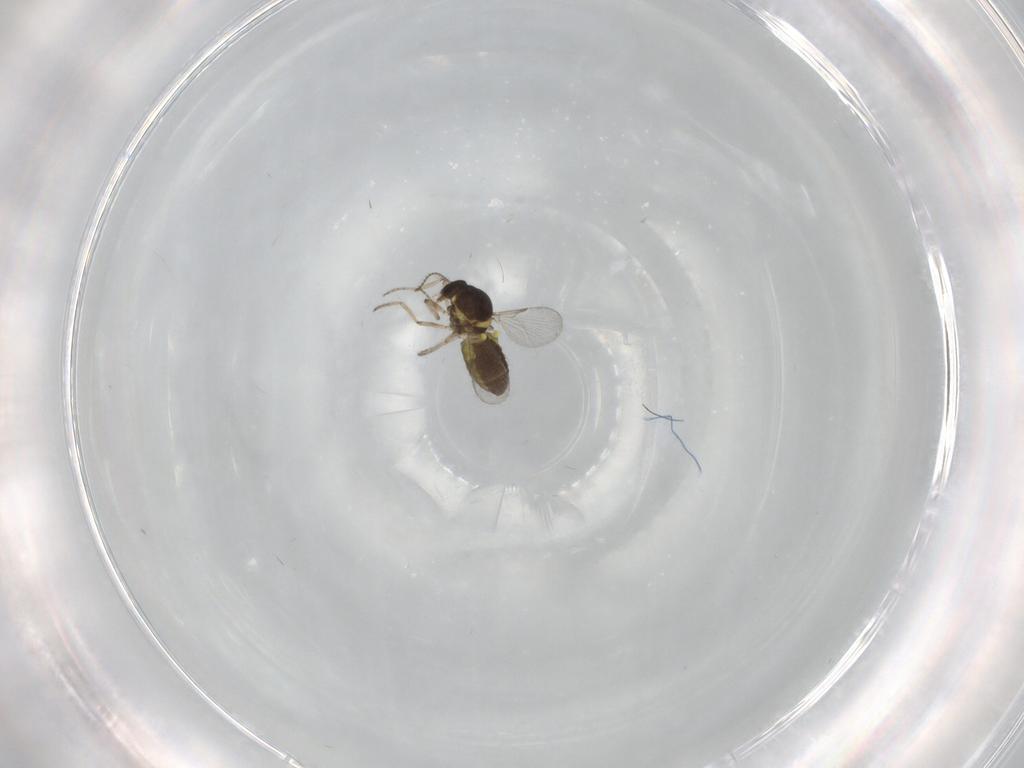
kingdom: Animalia
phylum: Arthropoda
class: Insecta
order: Diptera
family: Ceratopogonidae
